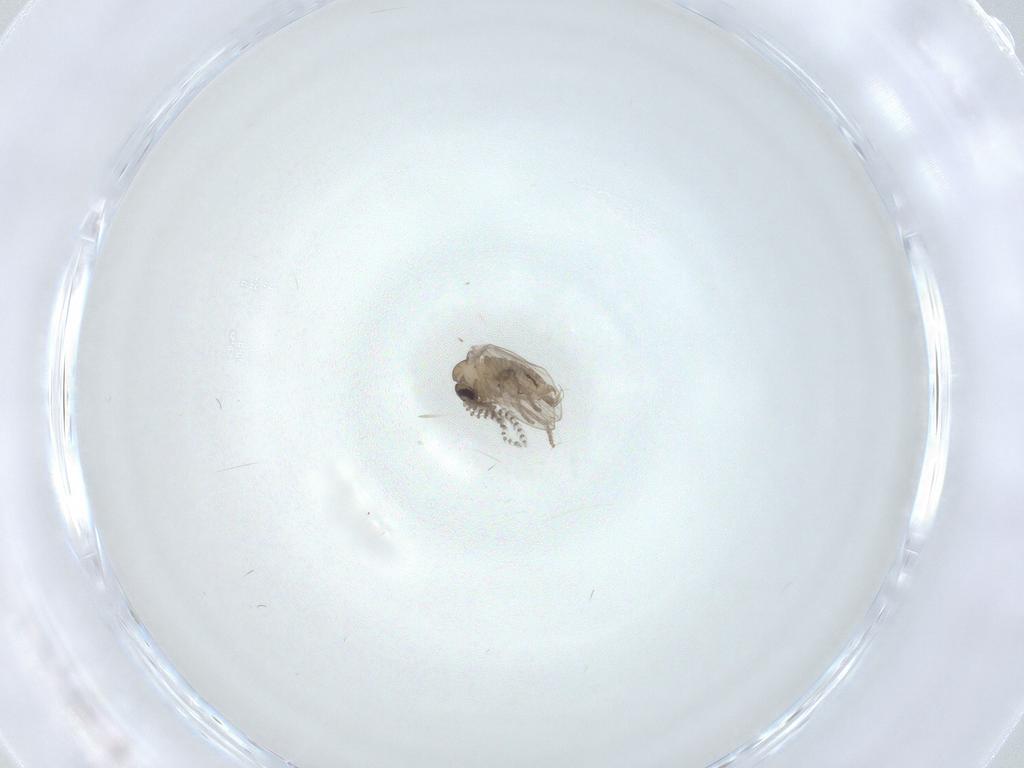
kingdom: Animalia
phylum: Arthropoda
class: Insecta
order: Diptera
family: Psychodidae
